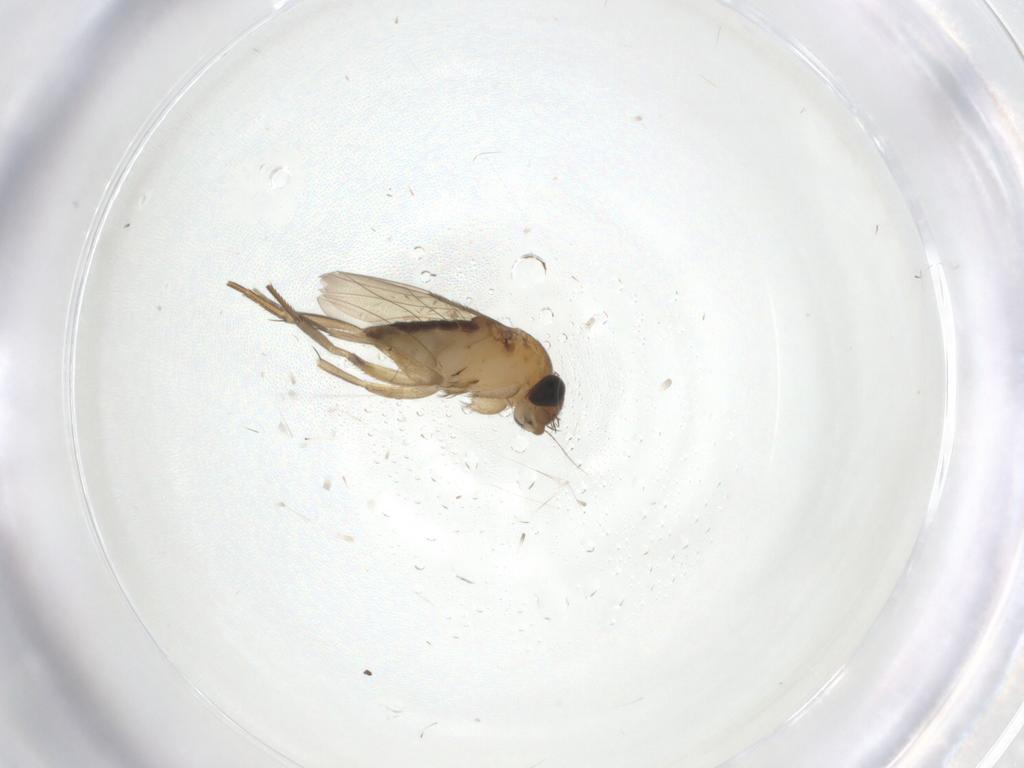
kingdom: Animalia
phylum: Arthropoda
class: Insecta
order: Diptera
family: Phoridae
